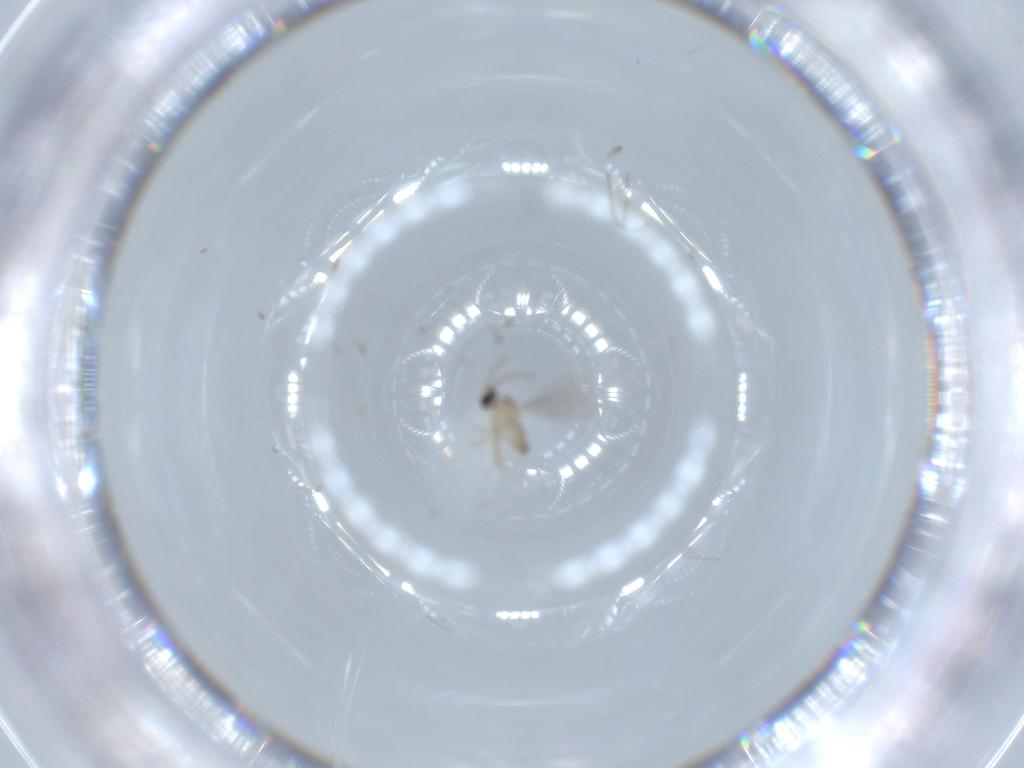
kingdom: Animalia
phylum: Arthropoda
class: Insecta
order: Diptera
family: Cecidomyiidae
